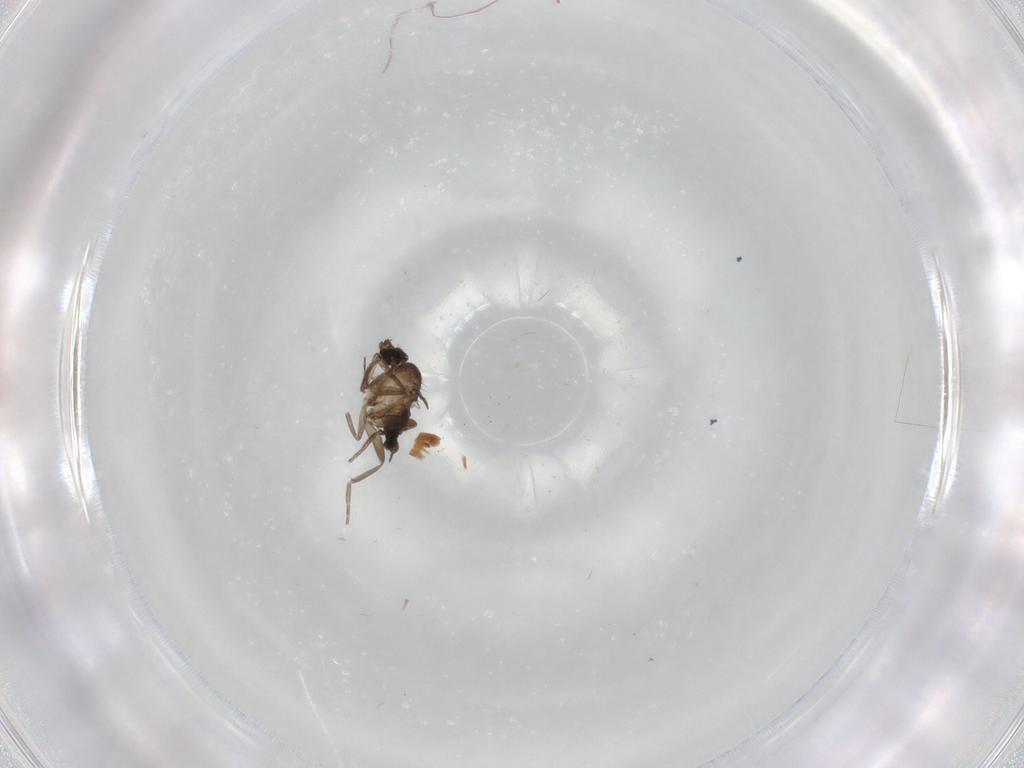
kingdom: Animalia
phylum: Arthropoda
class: Insecta
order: Diptera
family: Phoridae
